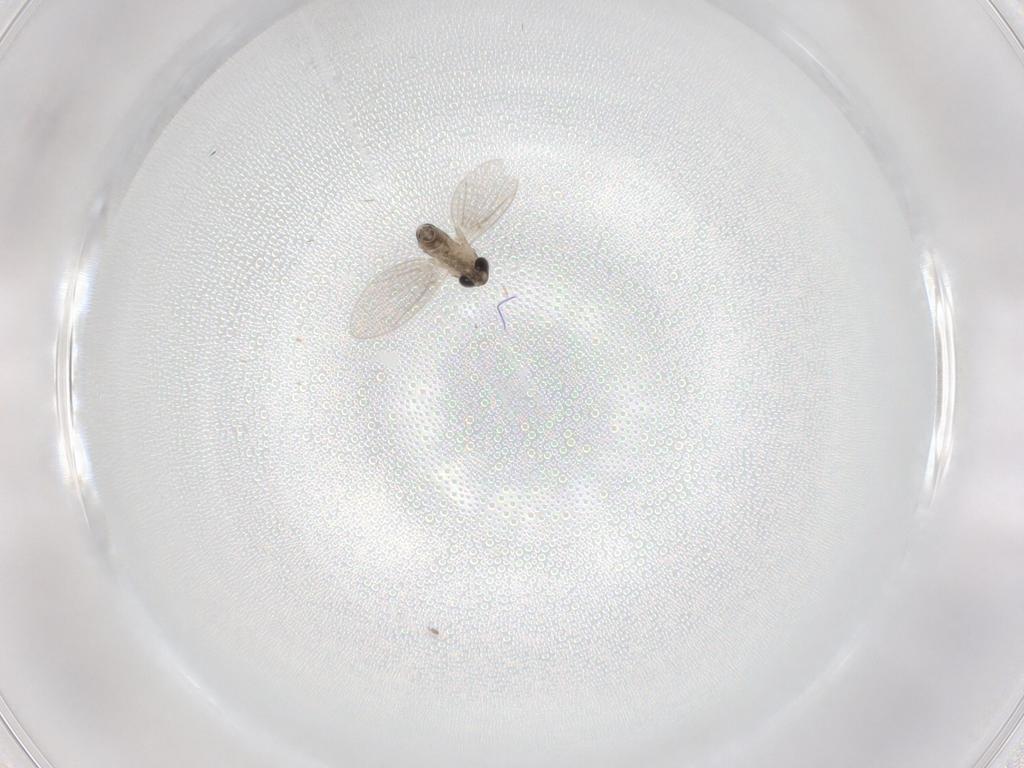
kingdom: Animalia
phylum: Arthropoda
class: Insecta
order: Diptera
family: Psychodidae
